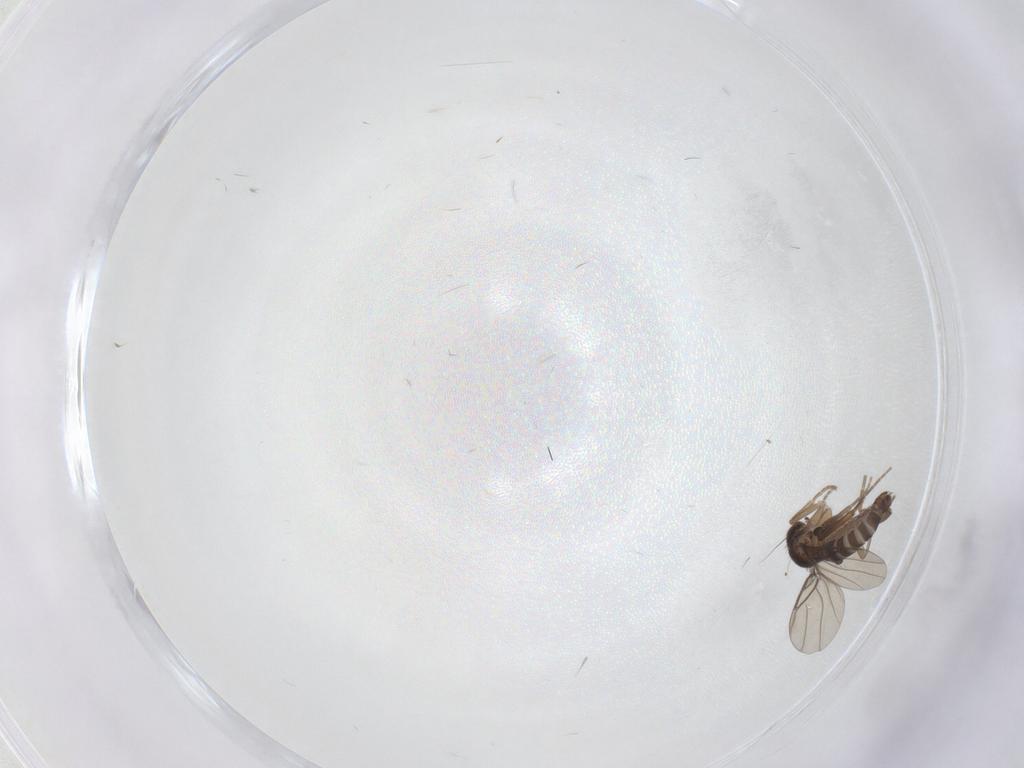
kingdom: Animalia
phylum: Arthropoda
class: Insecta
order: Diptera
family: Phoridae
